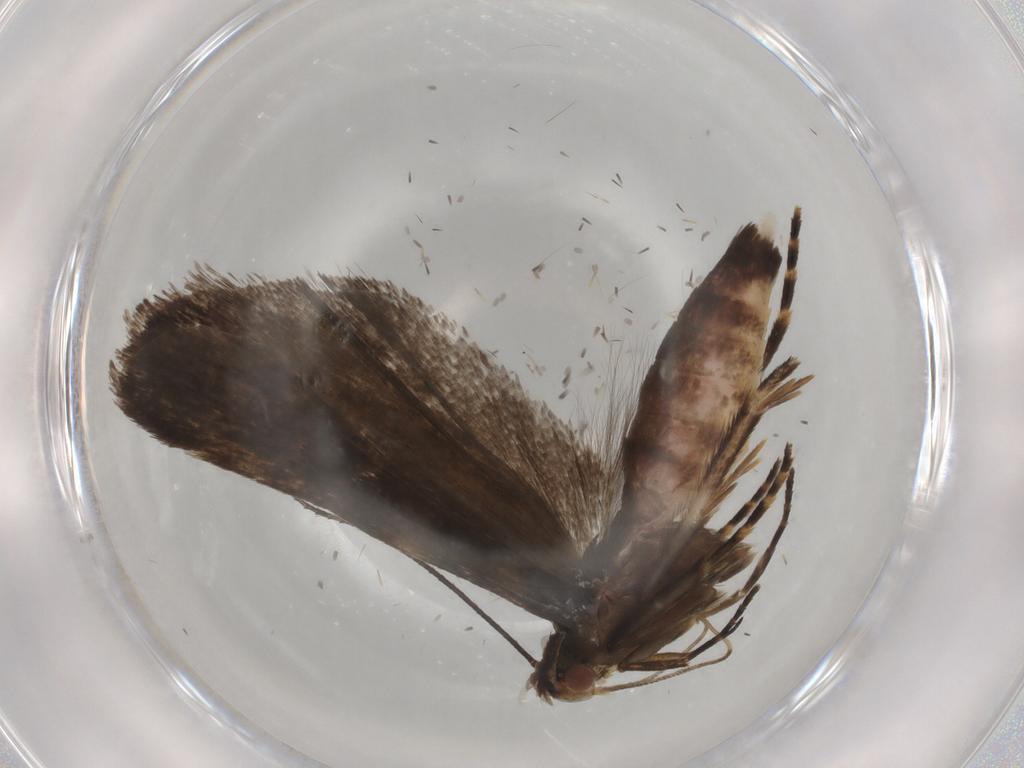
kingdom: Animalia
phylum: Arthropoda
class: Insecta
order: Lepidoptera
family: Gelechiidae
